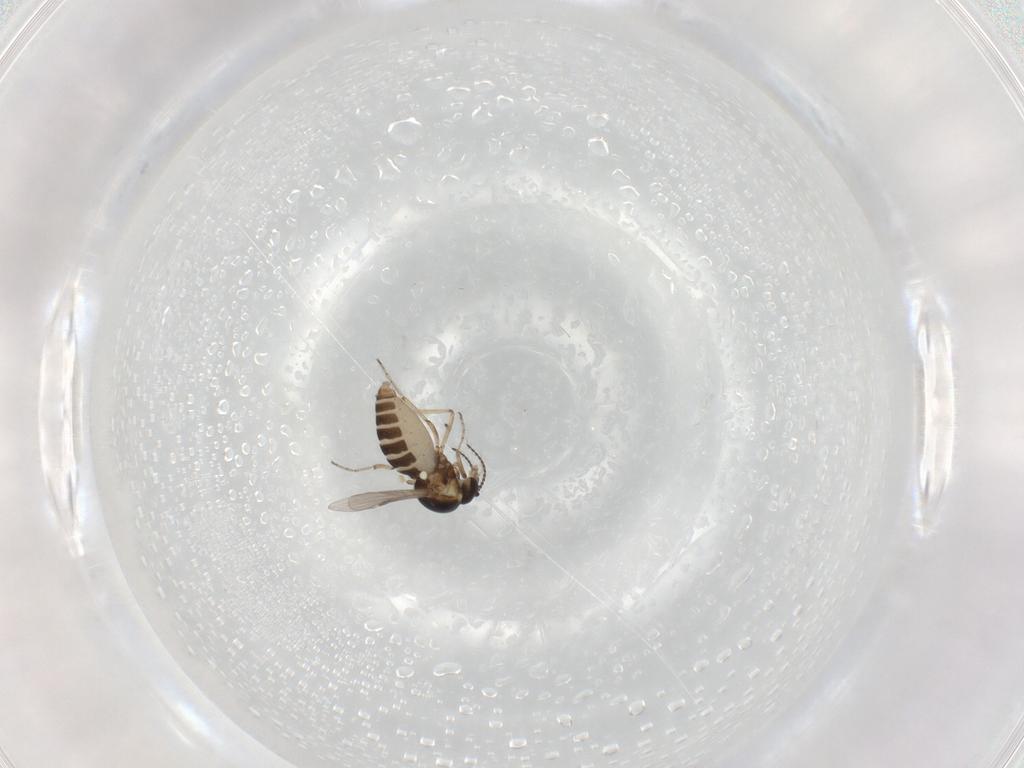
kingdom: Animalia
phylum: Arthropoda
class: Insecta
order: Diptera
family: Ceratopogonidae
